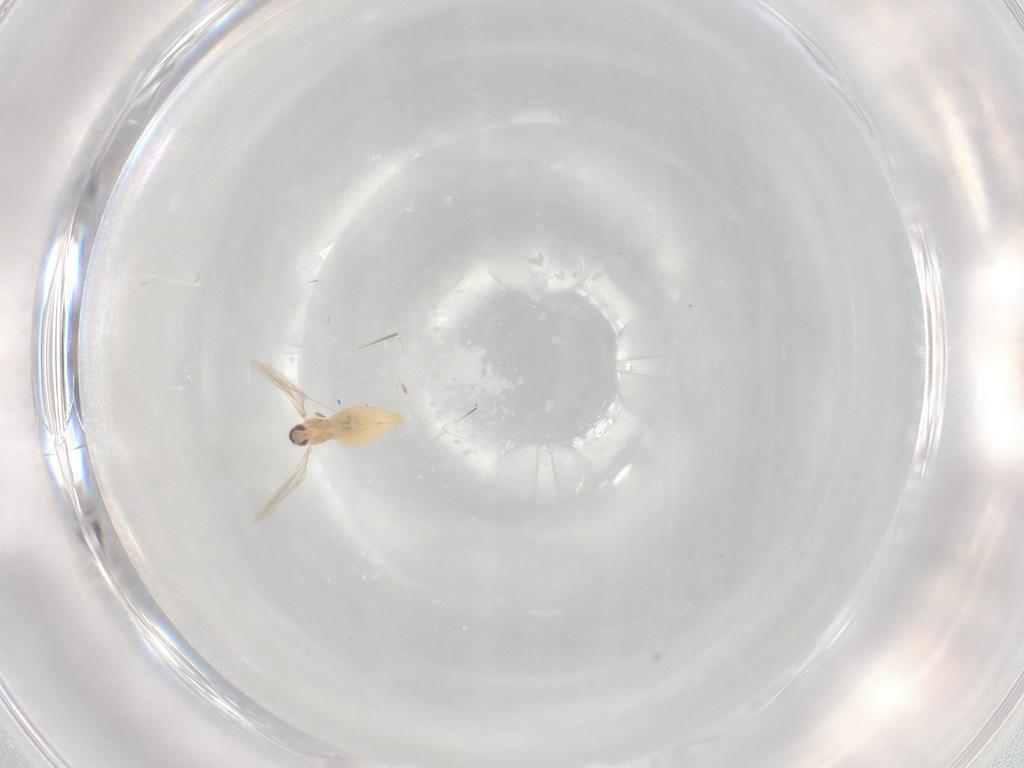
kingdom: Animalia
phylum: Arthropoda
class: Insecta
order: Diptera
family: Cecidomyiidae
